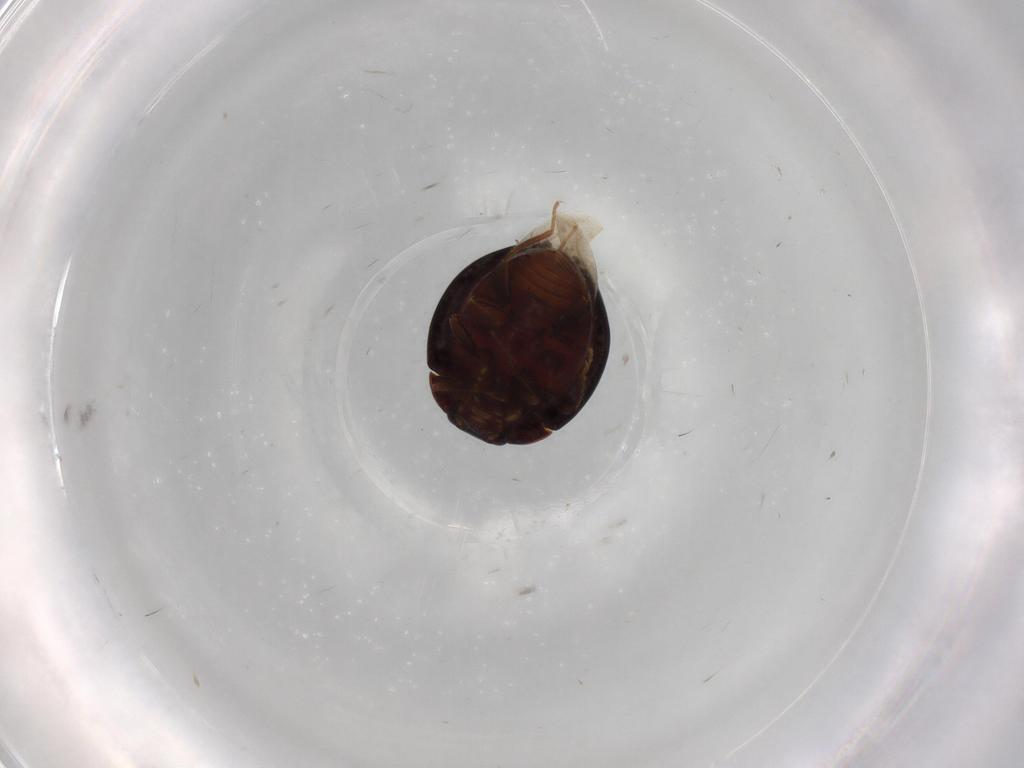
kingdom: Animalia
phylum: Arthropoda
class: Insecta
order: Coleoptera
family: Anamorphidae
